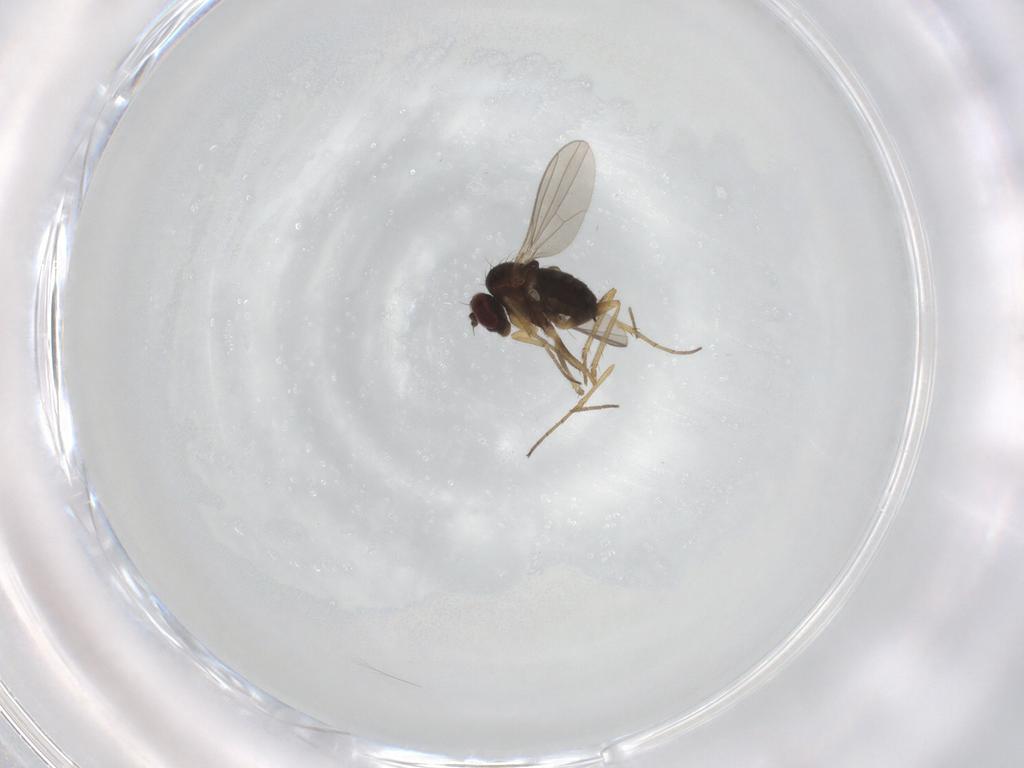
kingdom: Animalia
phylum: Arthropoda
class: Insecta
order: Diptera
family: Dolichopodidae
